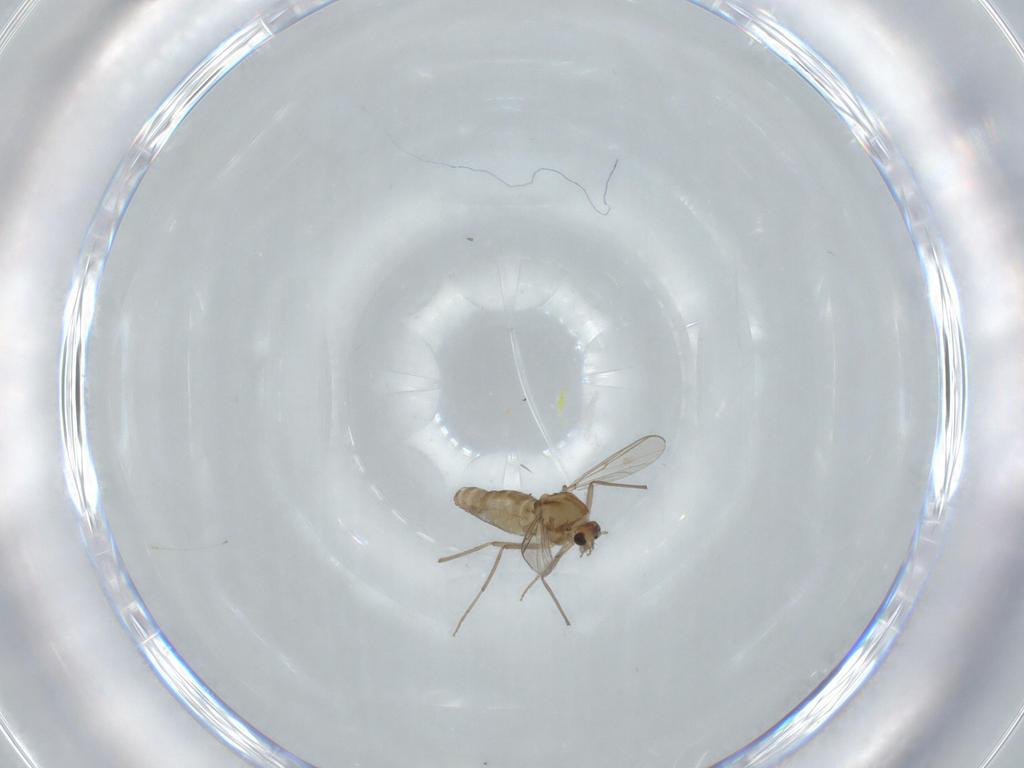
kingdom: Animalia
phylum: Arthropoda
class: Insecta
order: Diptera
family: Chironomidae
